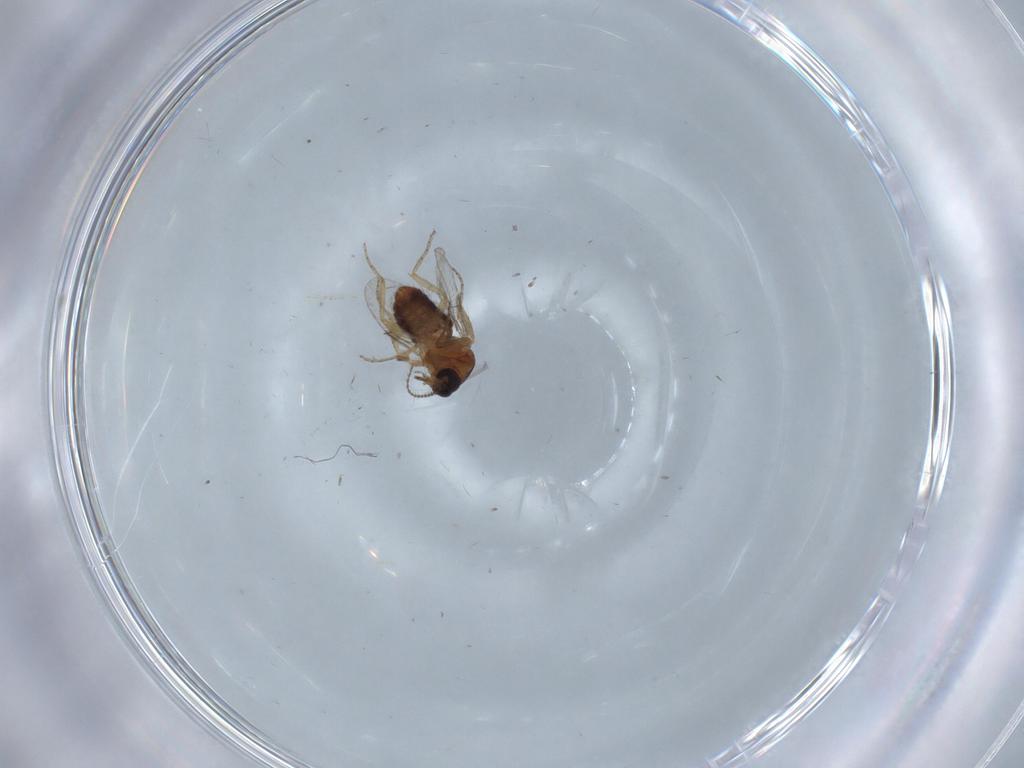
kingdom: Animalia
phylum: Arthropoda
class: Insecta
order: Diptera
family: Ceratopogonidae
